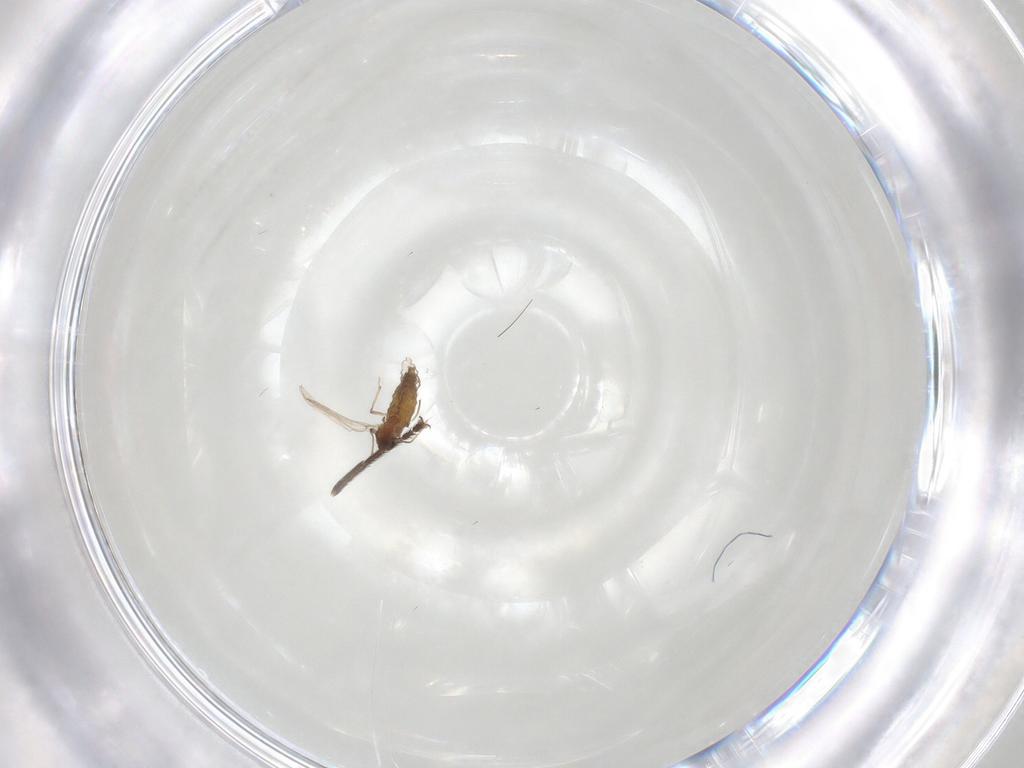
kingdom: Animalia
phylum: Arthropoda
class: Insecta
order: Diptera
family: Muscidae
